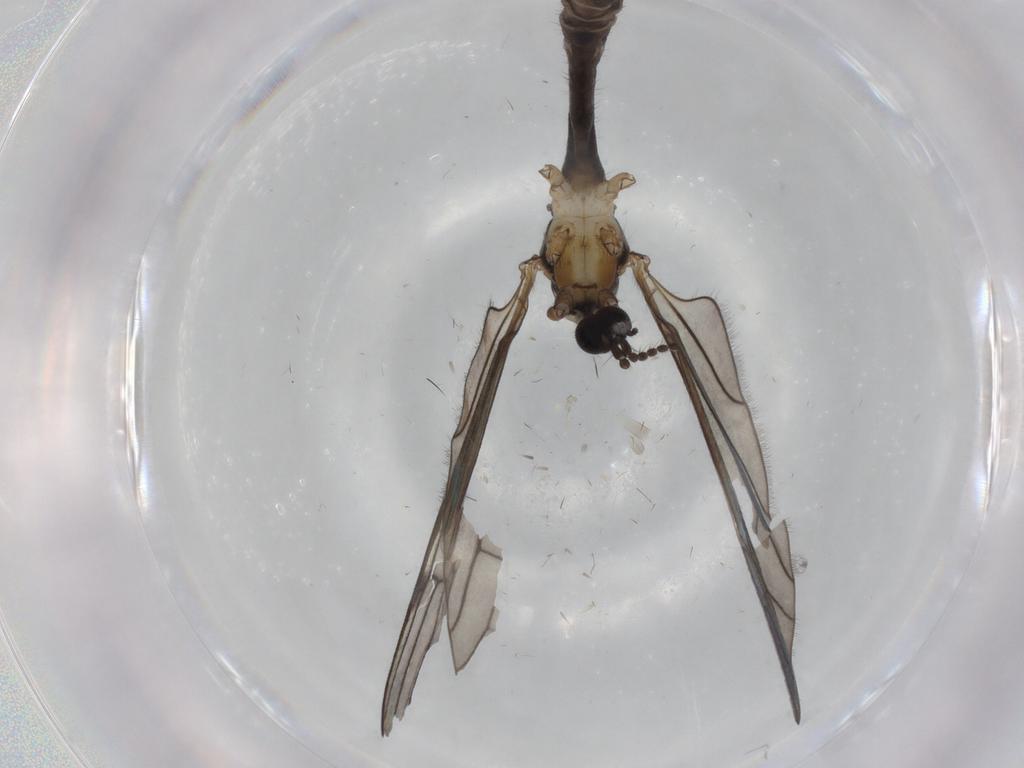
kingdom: Animalia
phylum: Arthropoda
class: Insecta
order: Diptera
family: Limoniidae
